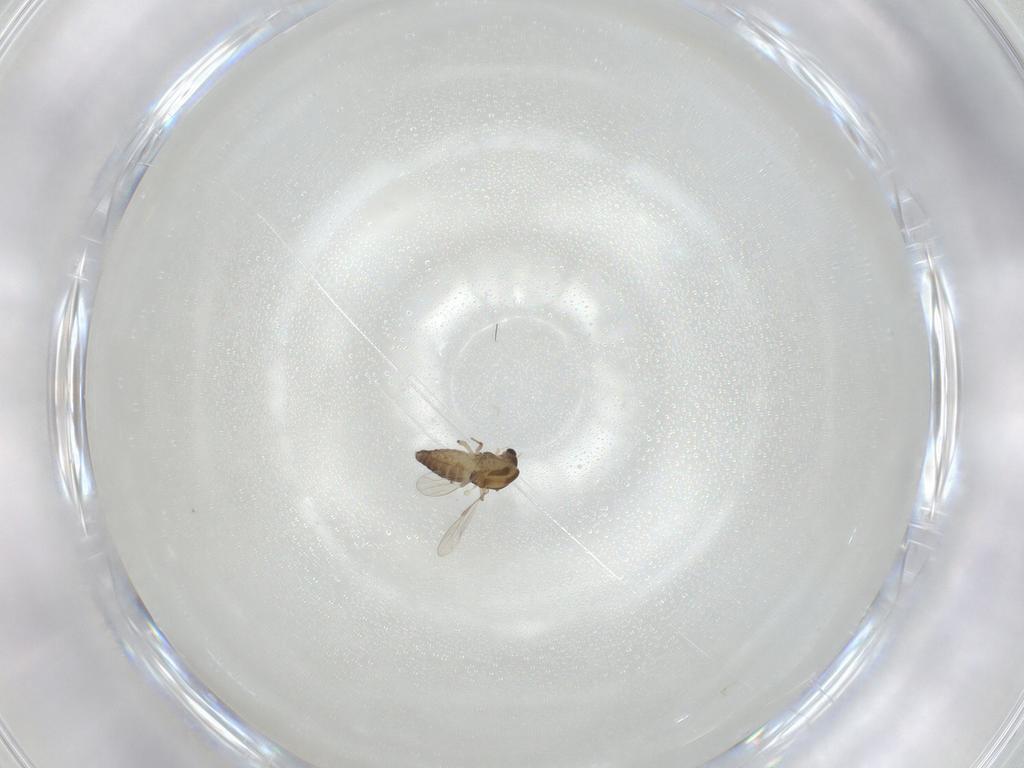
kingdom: Animalia
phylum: Arthropoda
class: Insecta
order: Diptera
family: Chironomidae
